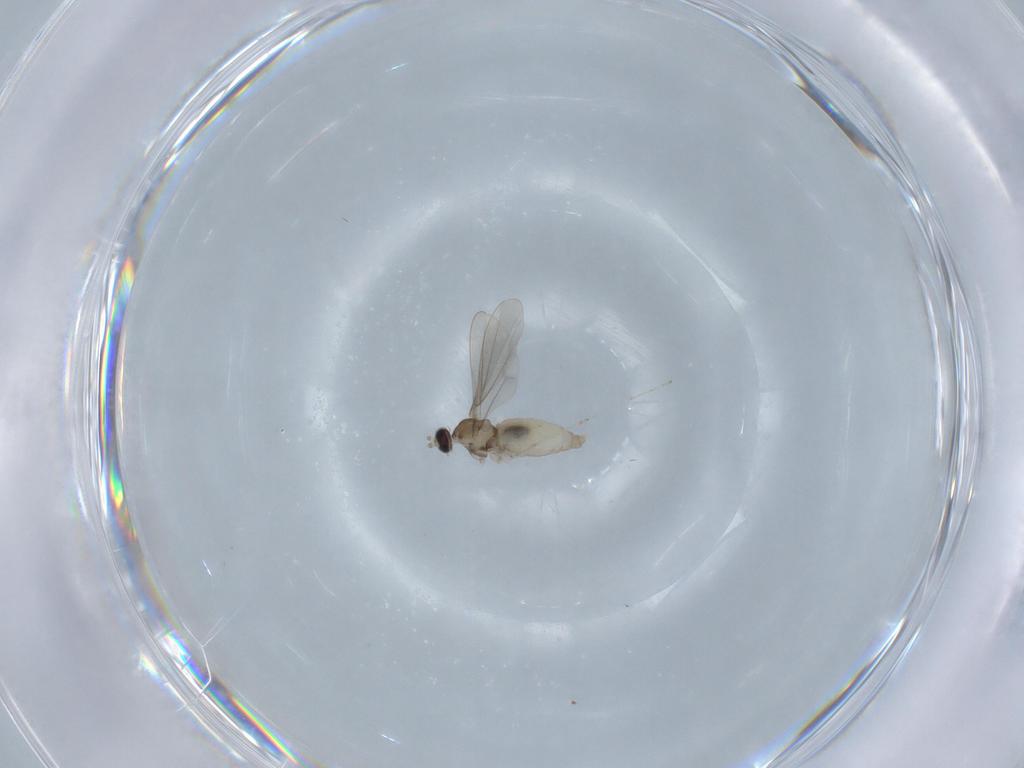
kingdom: Animalia
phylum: Arthropoda
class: Insecta
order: Diptera
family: Cecidomyiidae
